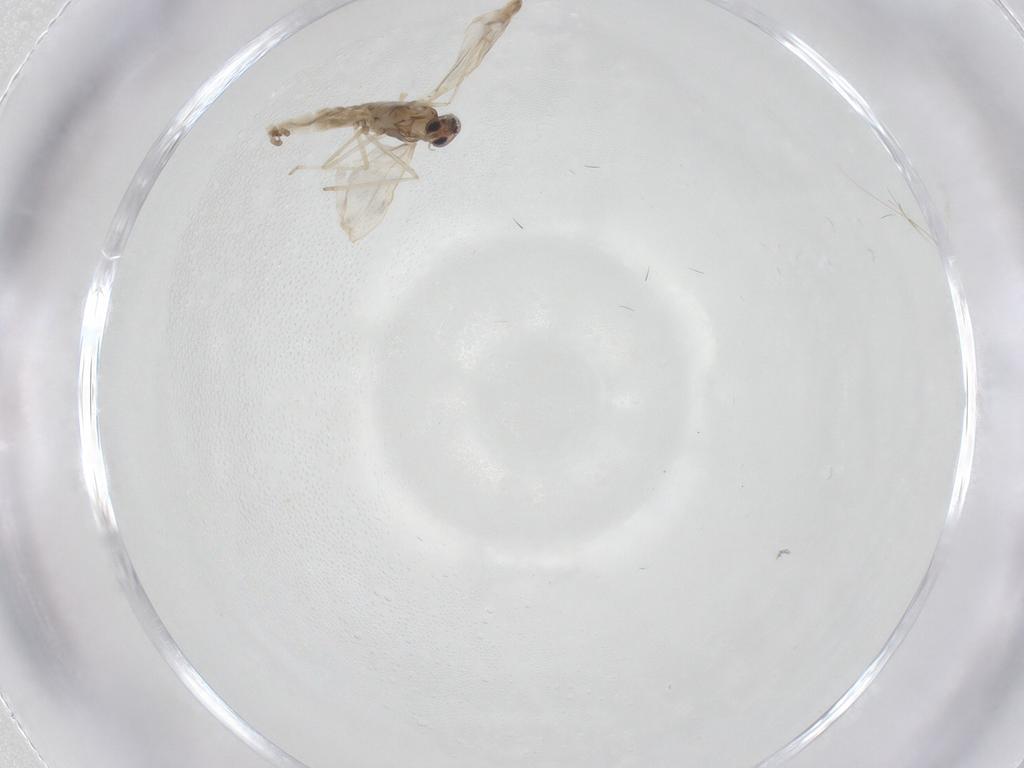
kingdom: Animalia
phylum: Arthropoda
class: Insecta
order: Diptera
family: Cecidomyiidae
